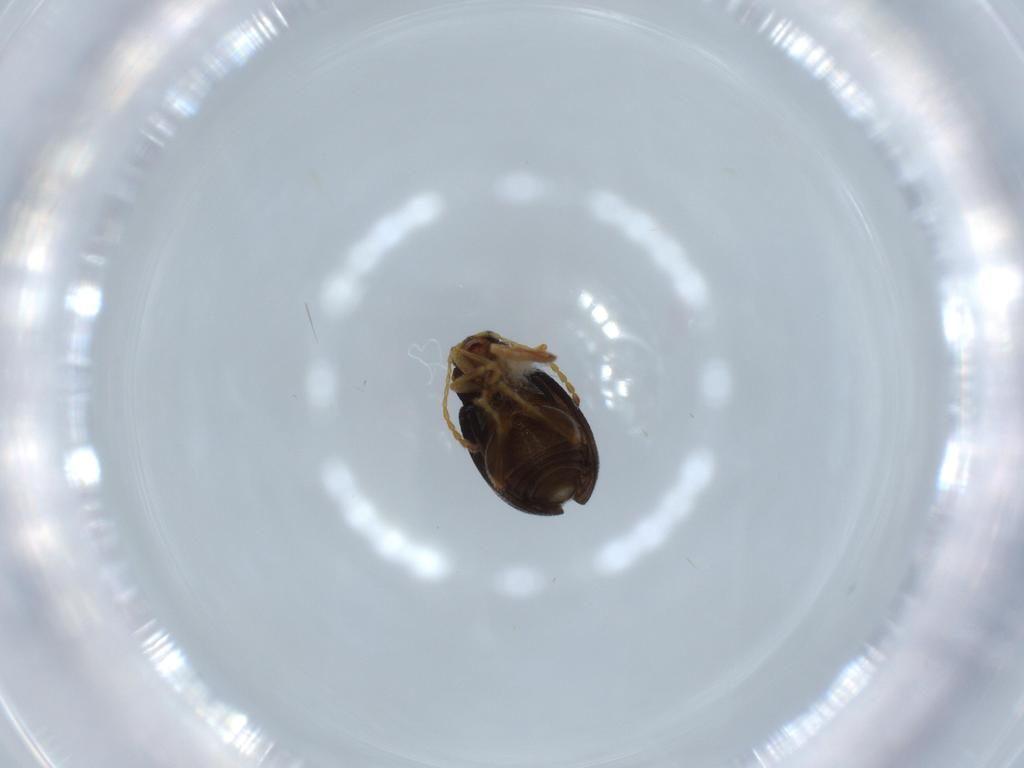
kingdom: Animalia
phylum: Arthropoda
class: Insecta
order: Coleoptera
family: Chrysomelidae
